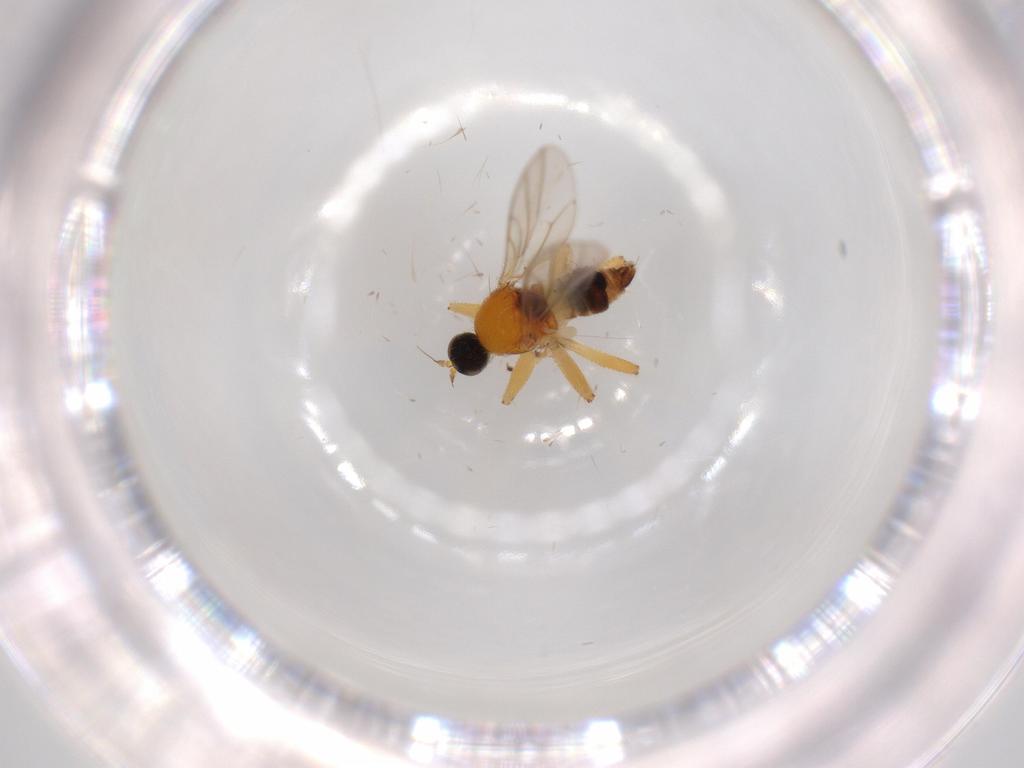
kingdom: Animalia
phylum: Arthropoda
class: Insecta
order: Diptera
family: Hybotidae
